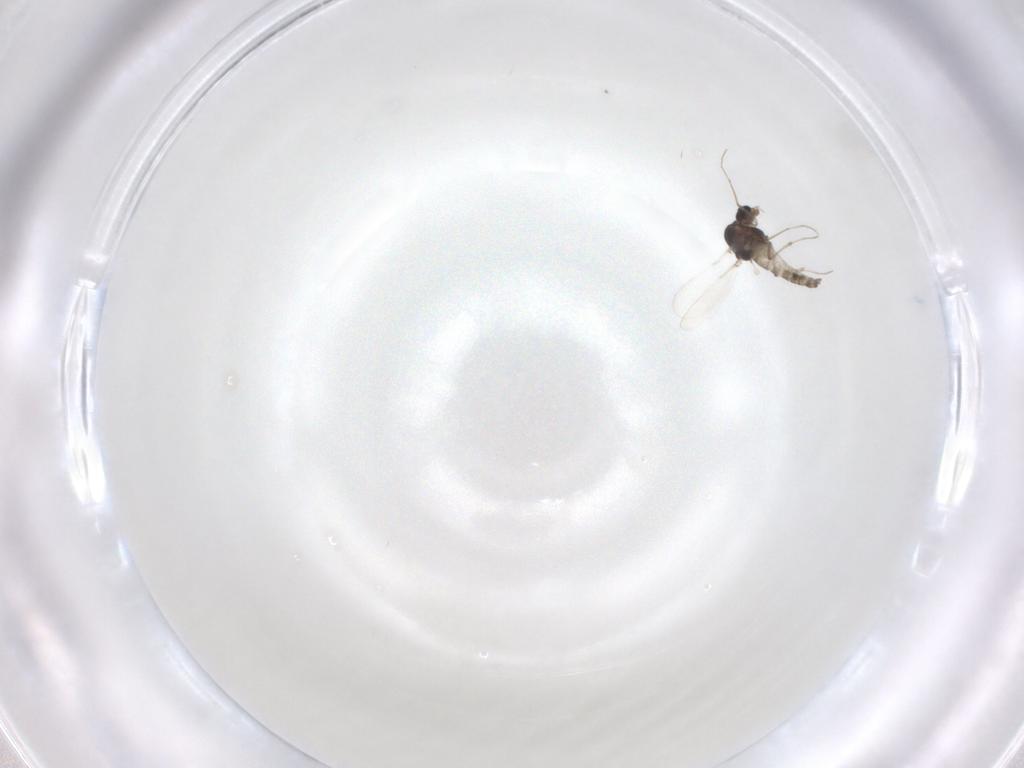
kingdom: Animalia
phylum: Arthropoda
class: Insecta
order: Diptera
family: Chironomidae
